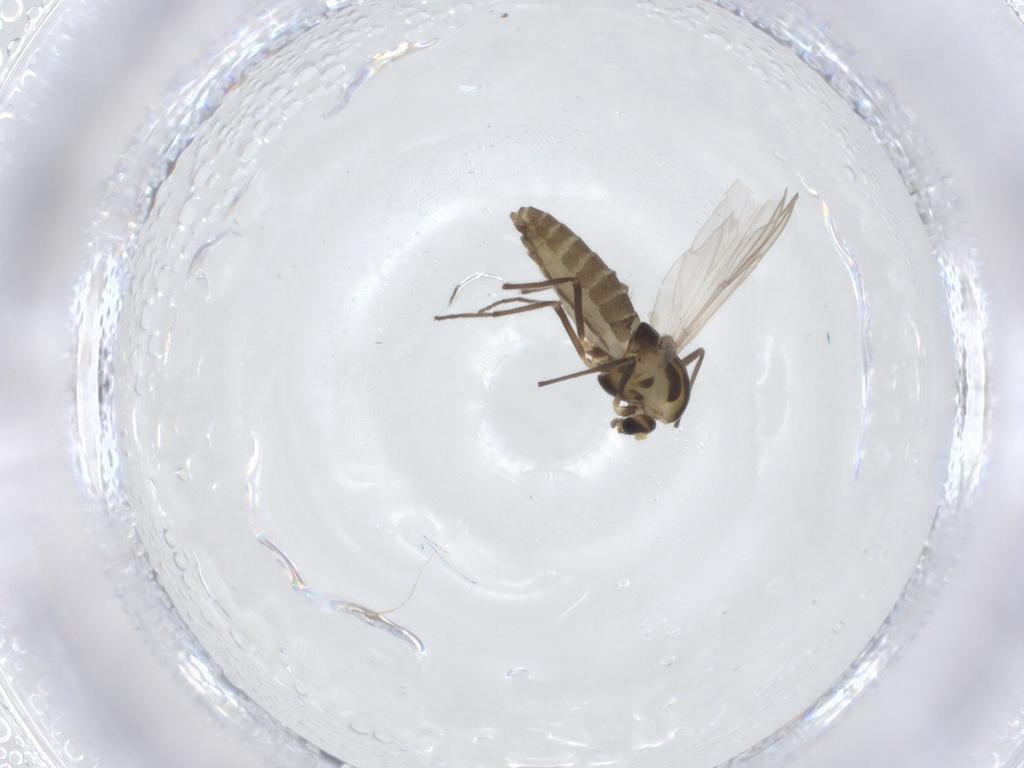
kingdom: Animalia
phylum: Arthropoda
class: Insecta
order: Diptera
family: Chironomidae
